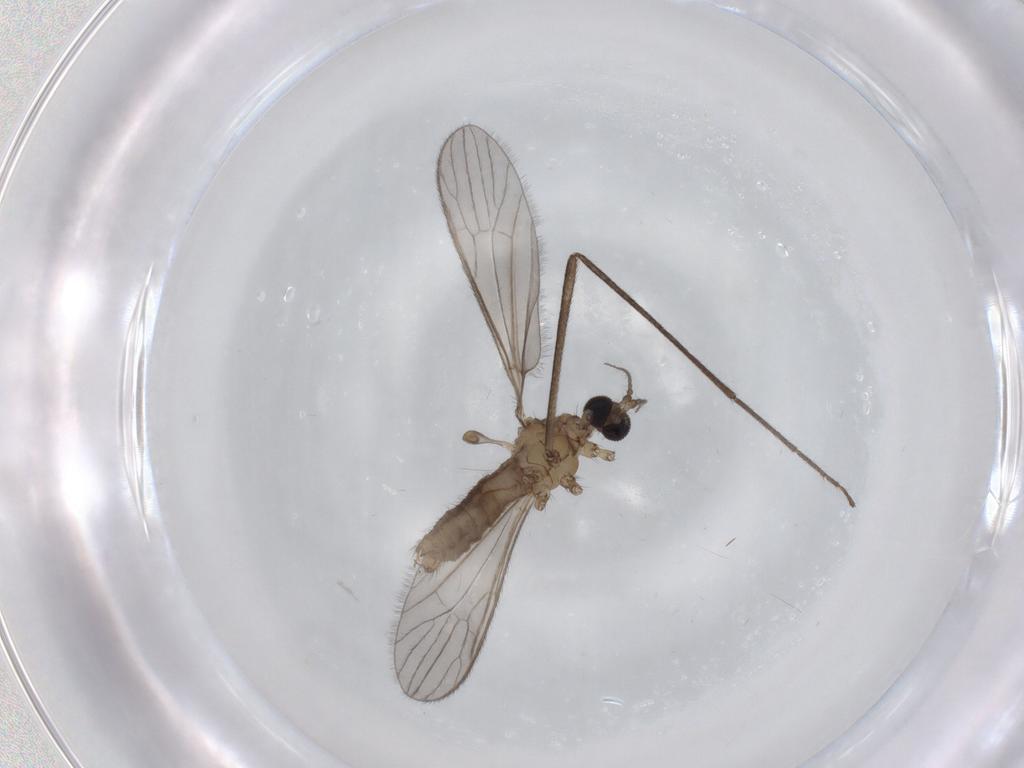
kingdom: Animalia
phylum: Arthropoda
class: Insecta
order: Diptera
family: Limoniidae
